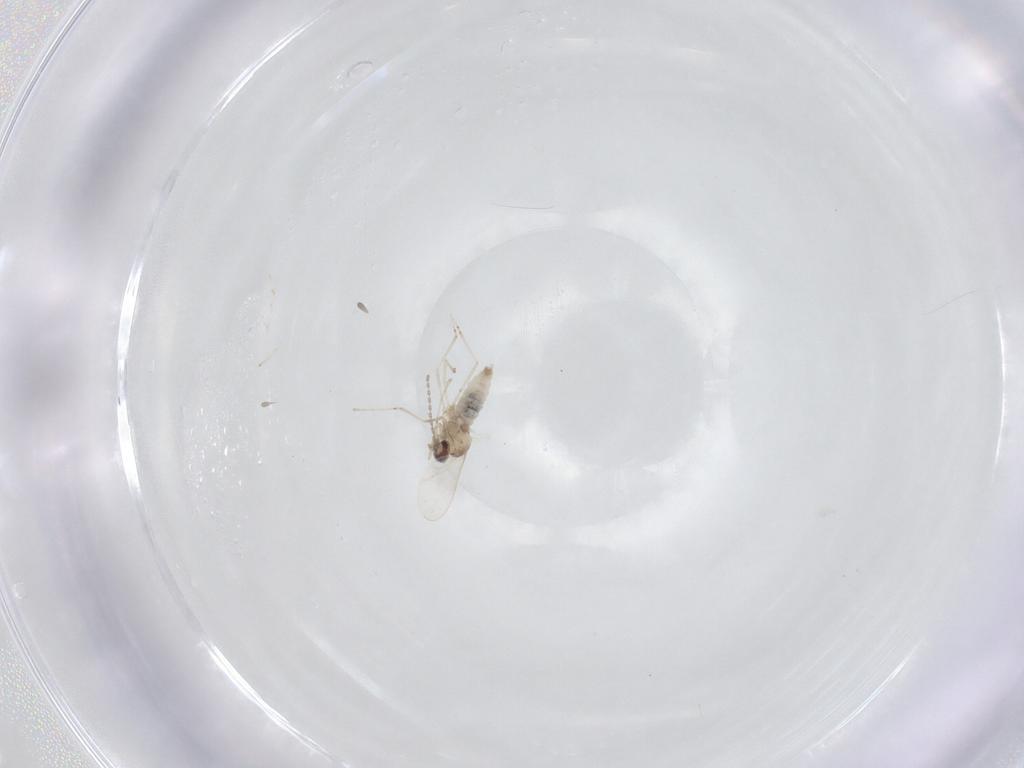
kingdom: Animalia
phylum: Arthropoda
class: Insecta
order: Diptera
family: Cecidomyiidae
